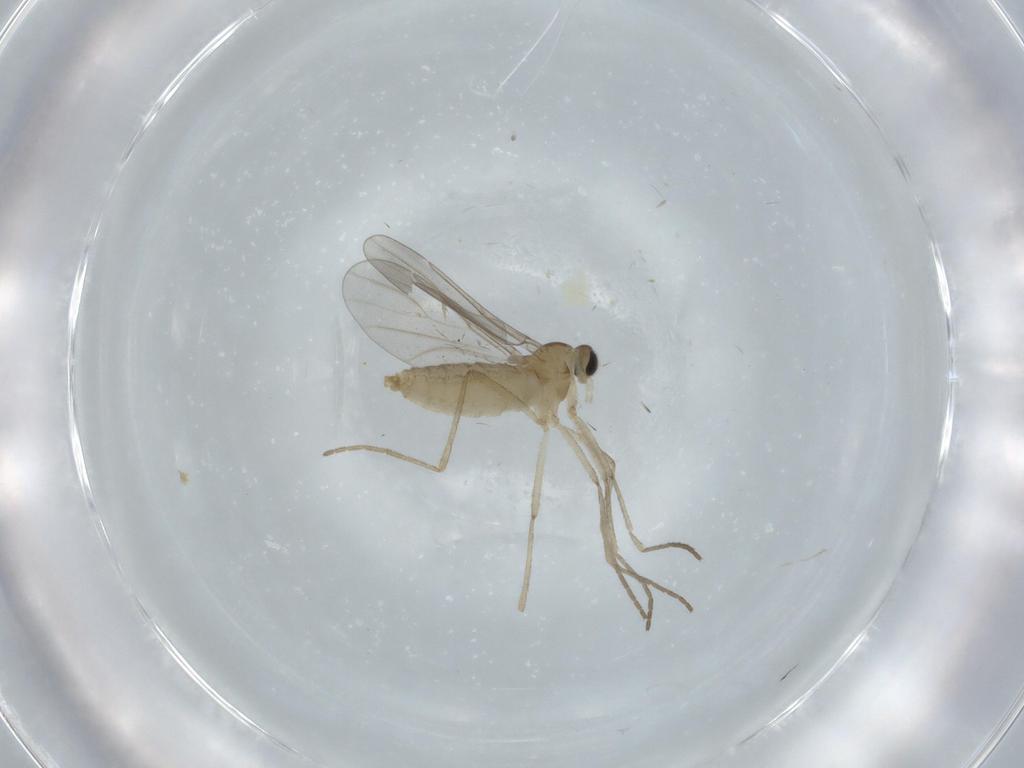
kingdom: Animalia
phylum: Arthropoda
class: Insecta
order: Diptera
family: Cecidomyiidae
